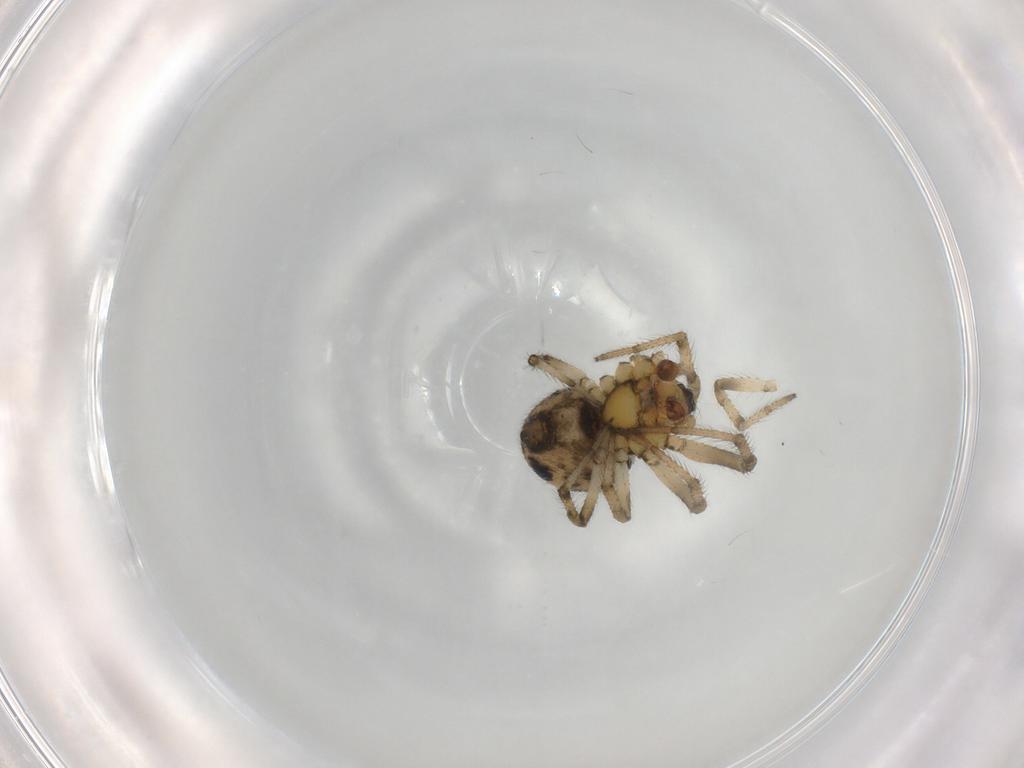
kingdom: Animalia
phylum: Arthropoda
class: Arachnida
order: Araneae
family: Theridiidae
